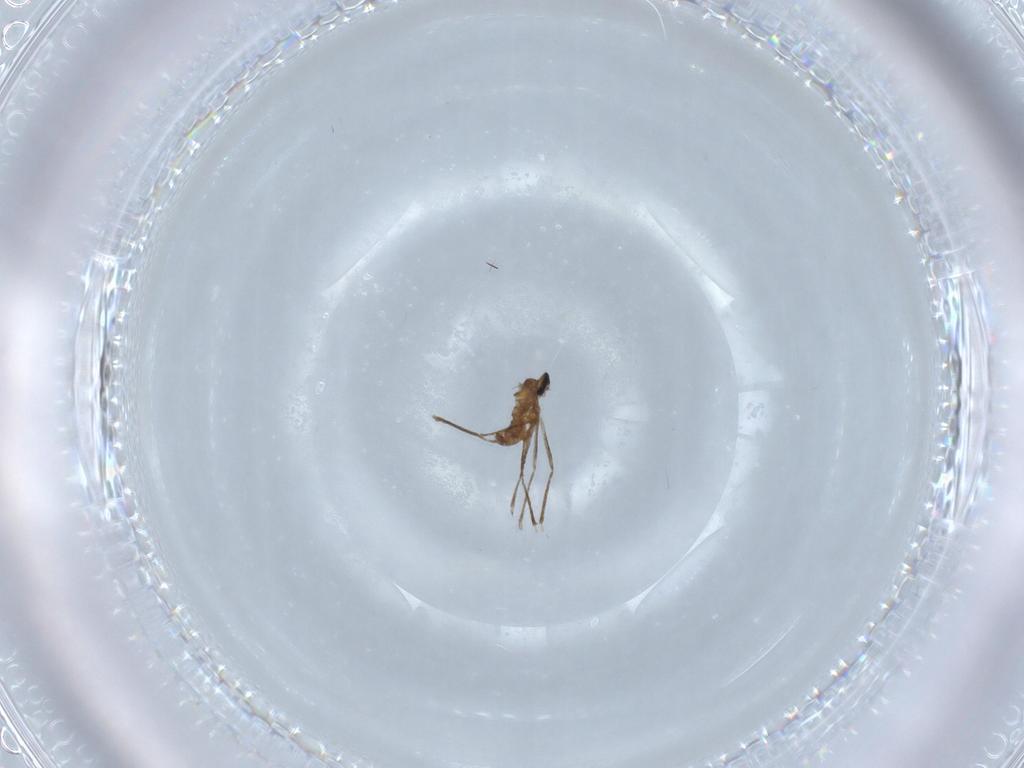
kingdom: Animalia
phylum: Arthropoda
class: Insecta
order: Diptera
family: Cecidomyiidae
